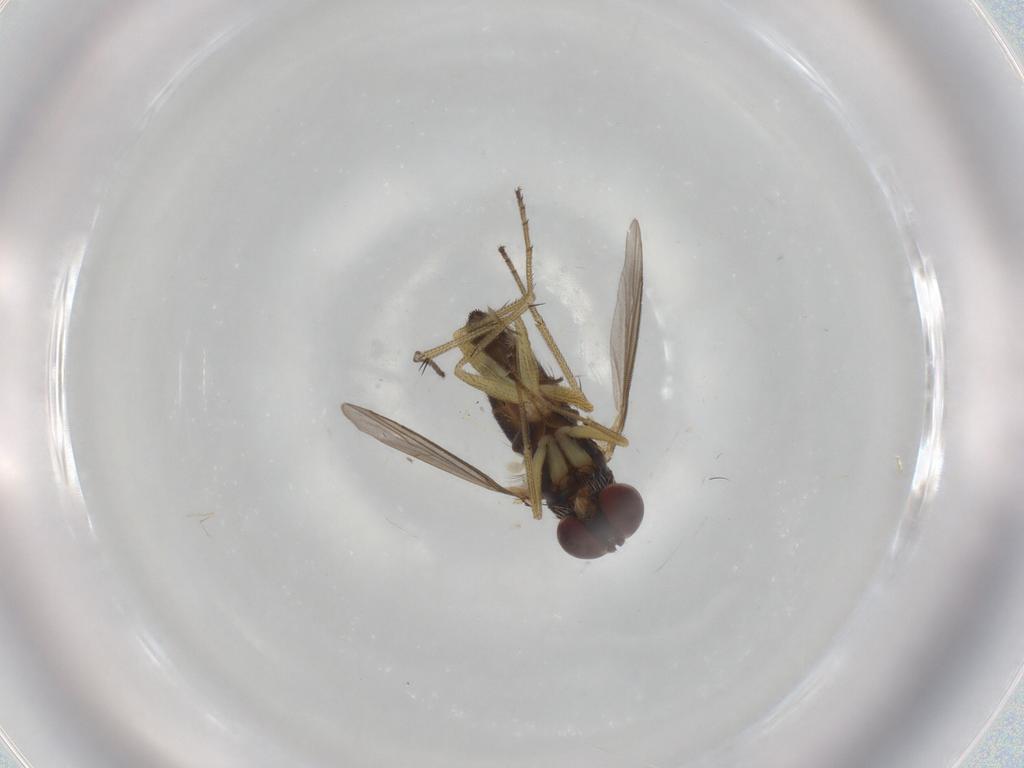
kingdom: Animalia
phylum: Arthropoda
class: Insecta
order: Diptera
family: Dolichopodidae
